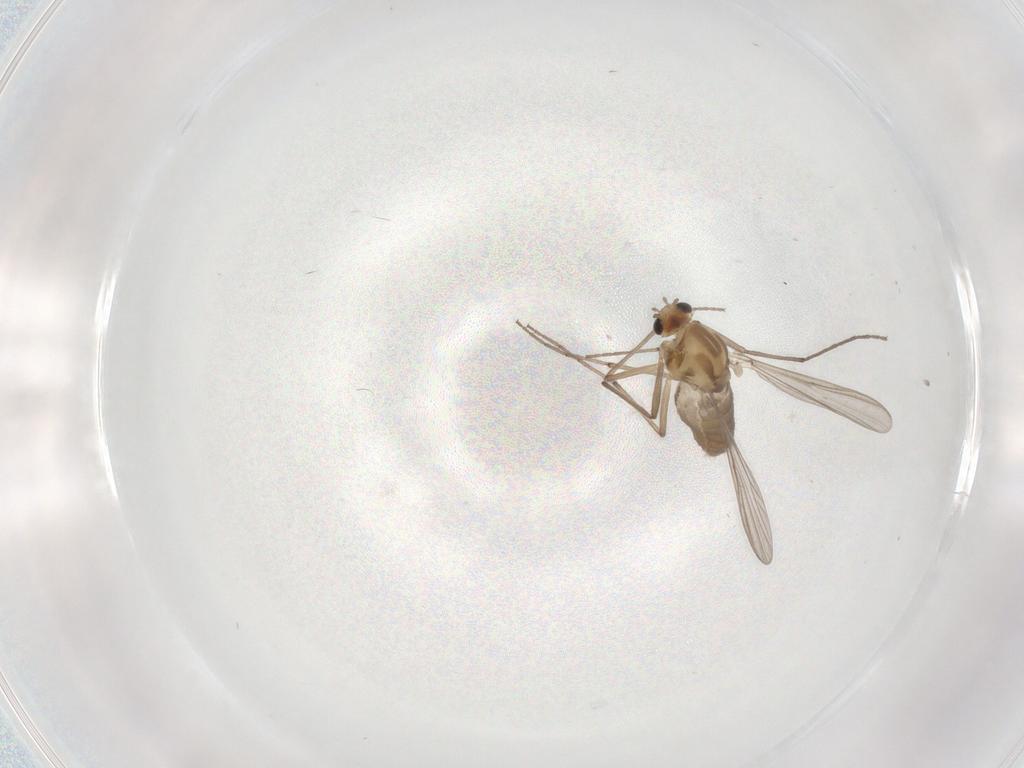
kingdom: Animalia
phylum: Arthropoda
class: Insecta
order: Diptera
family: Chironomidae
